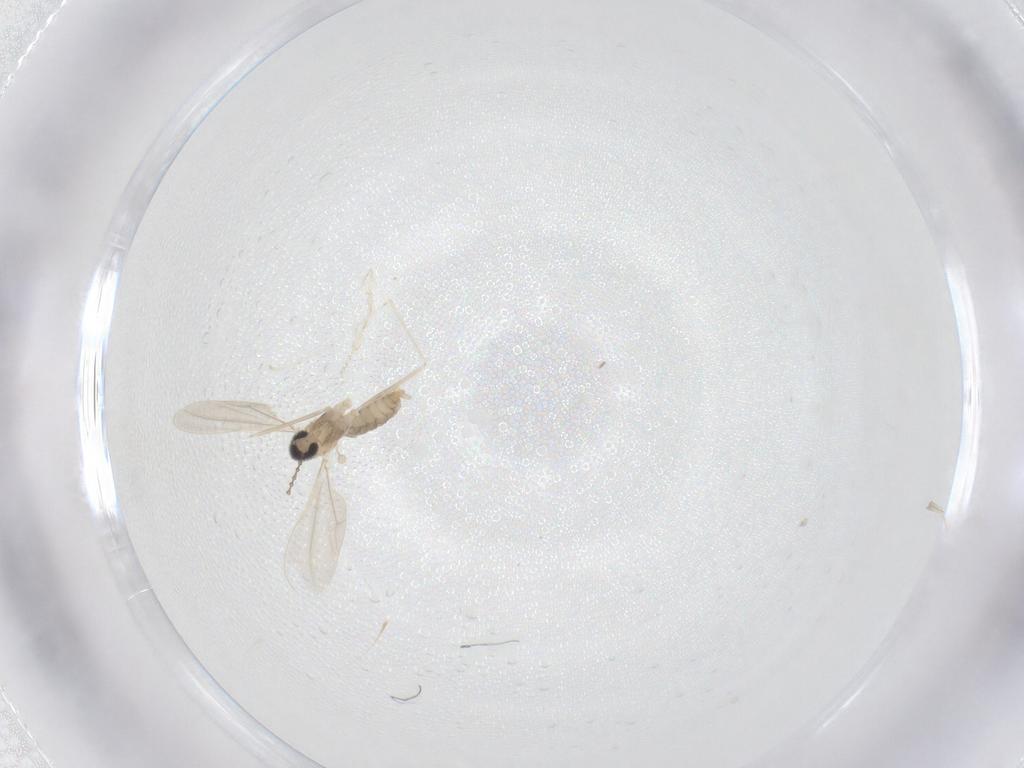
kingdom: Animalia
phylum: Arthropoda
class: Insecta
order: Diptera
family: Cecidomyiidae
